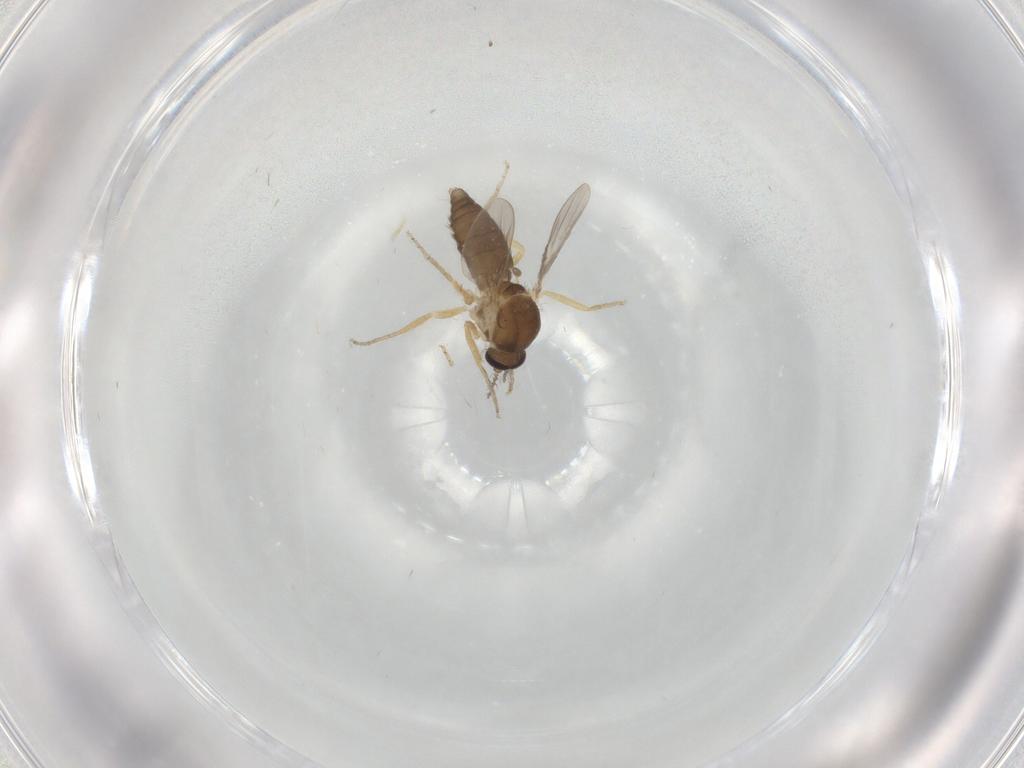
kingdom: Animalia
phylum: Arthropoda
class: Insecta
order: Diptera
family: Ceratopogonidae
